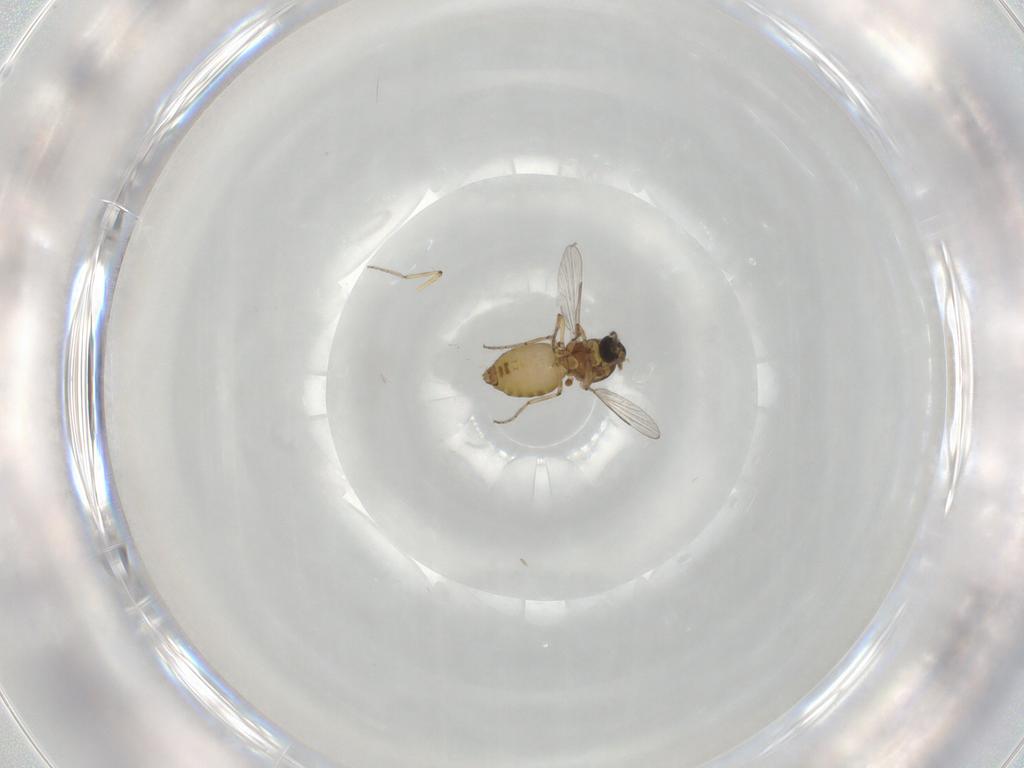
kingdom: Animalia
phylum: Arthropoda
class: Insecta
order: Diptera
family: Ceratopogonidae
